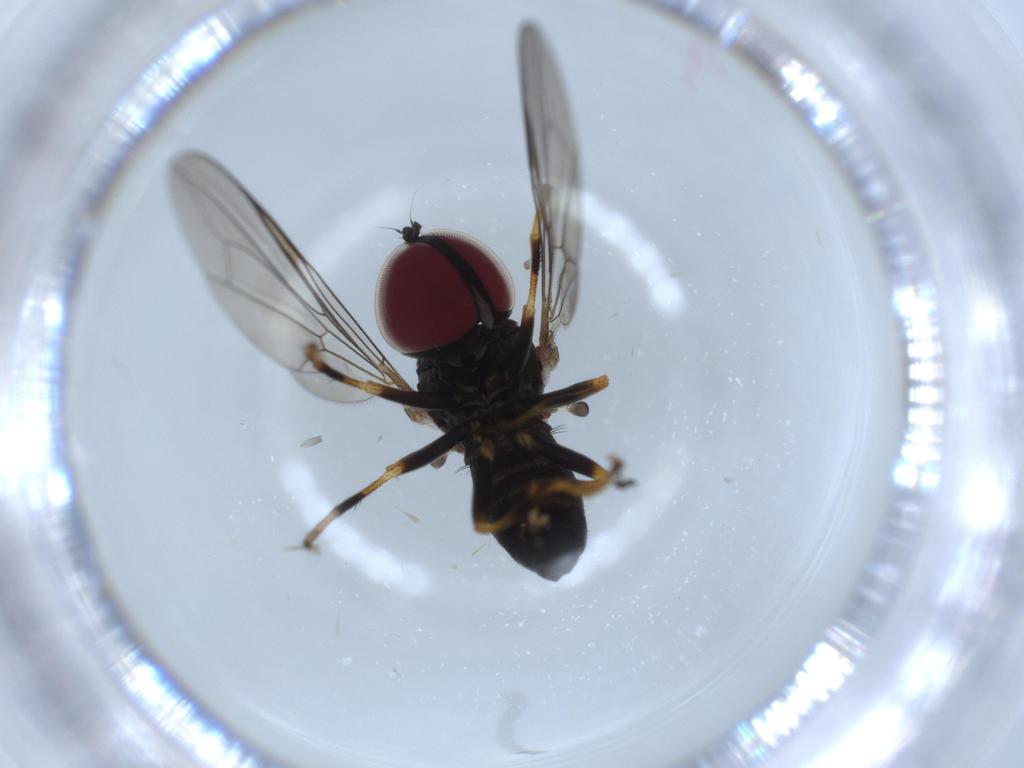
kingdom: Animalia
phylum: Arthropoda
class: Insecta
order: Diptera
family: Pipunculidae
